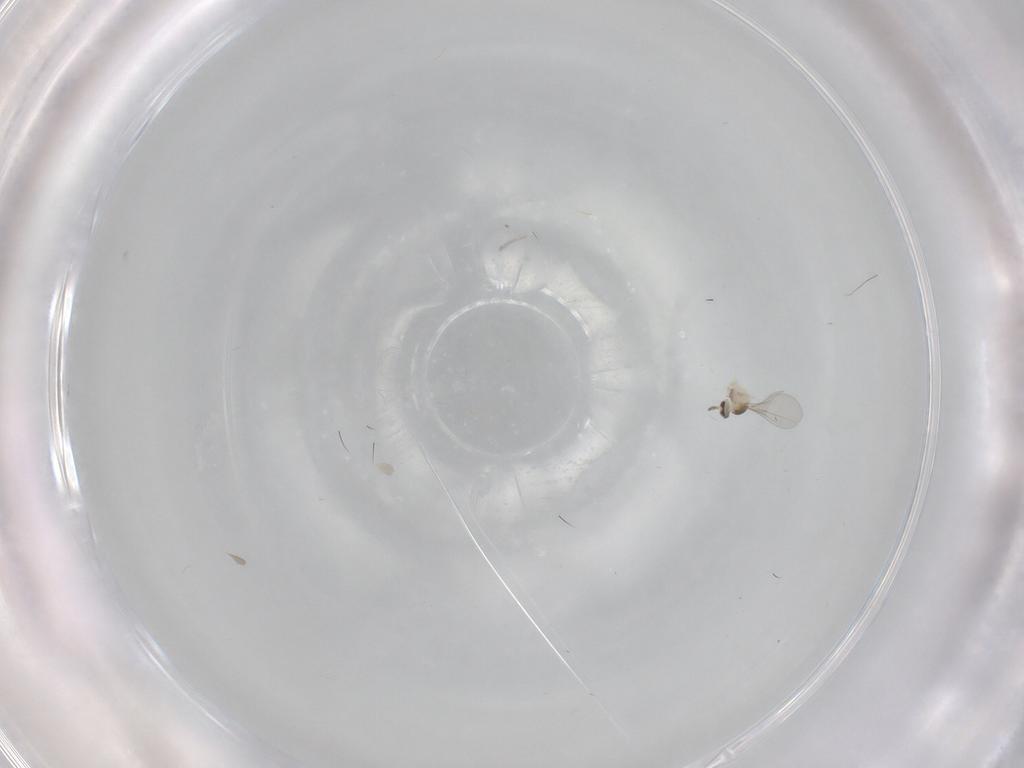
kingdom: Animalia
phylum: Arthropoda
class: Insecta
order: Diptera
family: Cecidomyiidae
